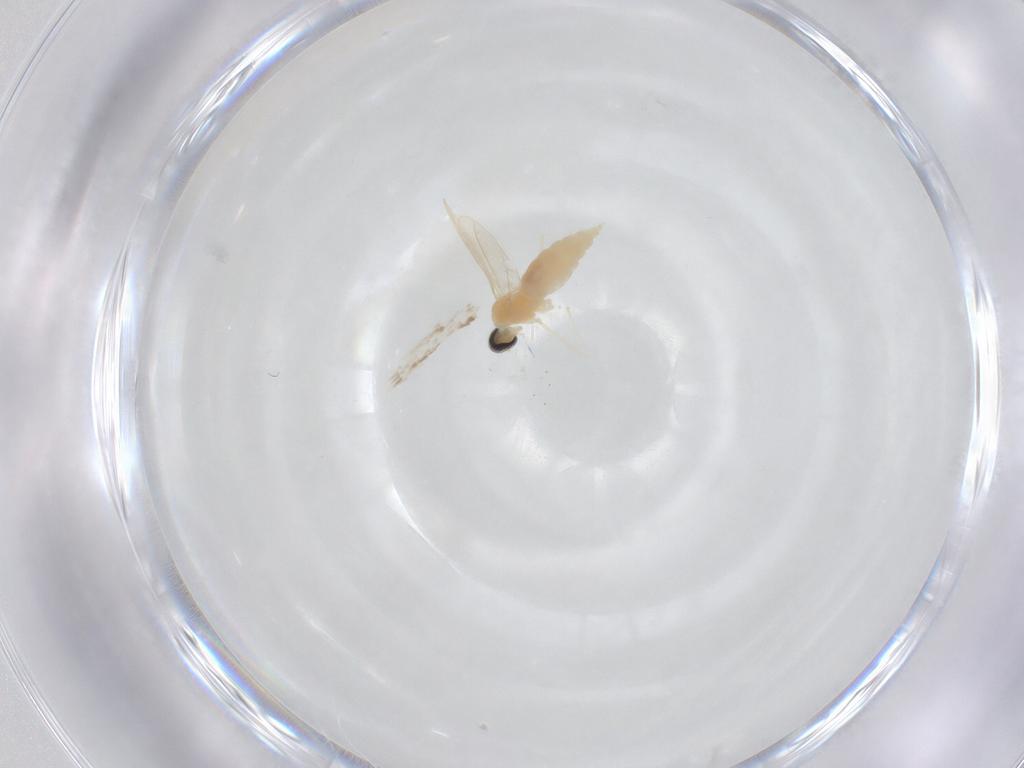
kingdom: Animalia
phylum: Arthropoda
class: Insecta
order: Diptera
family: Cecidomyiidae
